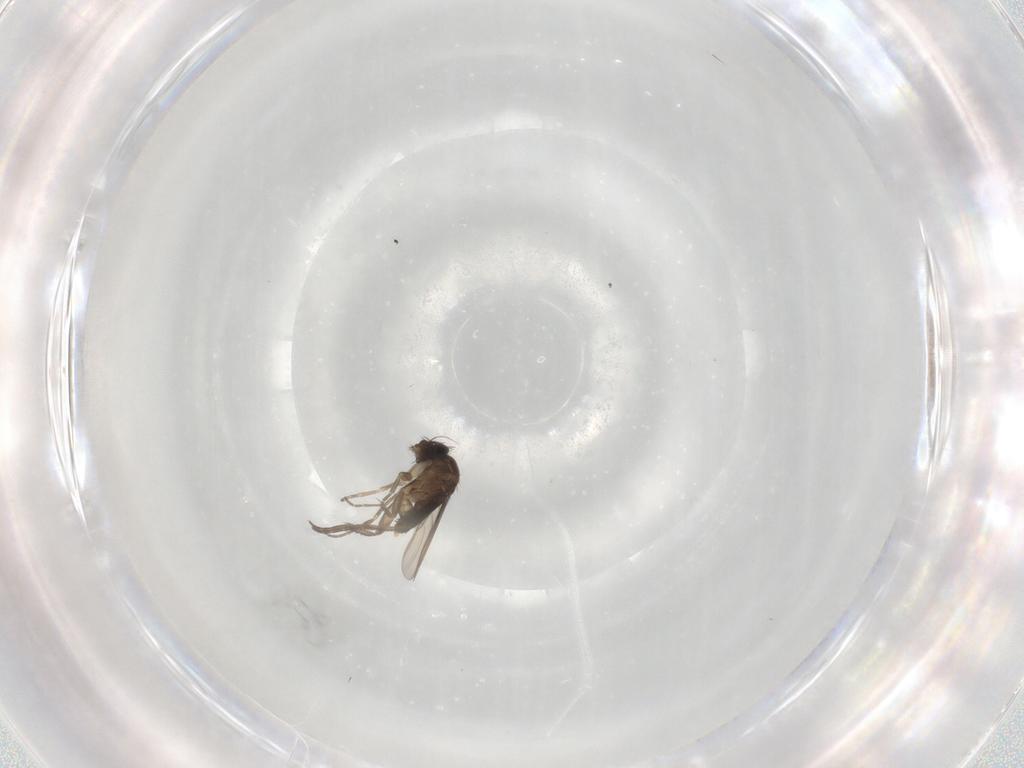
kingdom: Animalia
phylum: Arthropoda
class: Insecta
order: Diptera
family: Phoridae
